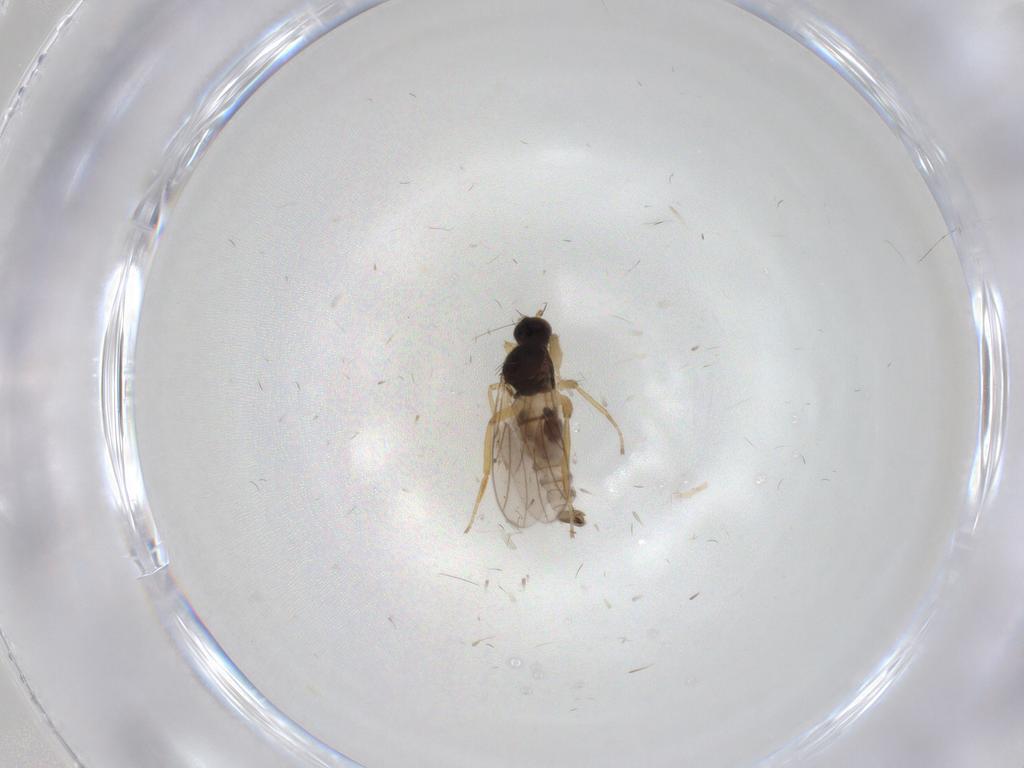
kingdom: Animalia
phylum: Arthropoda
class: Insecta
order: Diptera
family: Hybotidae
